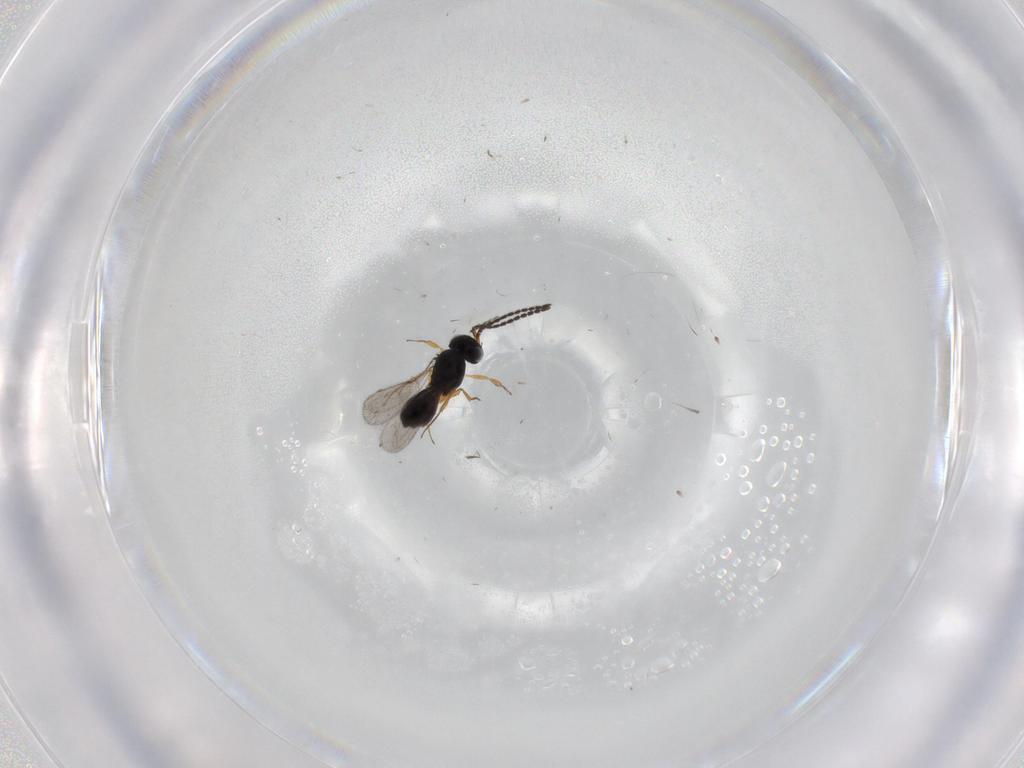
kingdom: Animalia
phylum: Arthropoda
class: Insecta
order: Hymenoptera
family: Scelionidae
